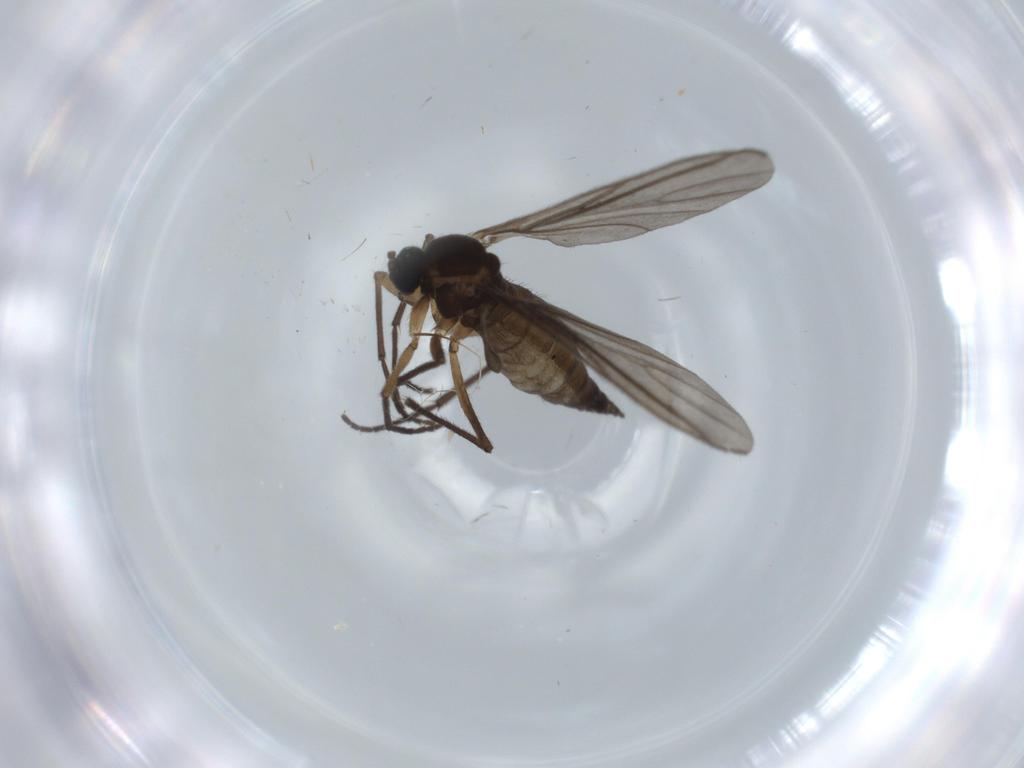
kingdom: Animalia
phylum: Arthropoda
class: Insecta
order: Diptera
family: Sciaridae
